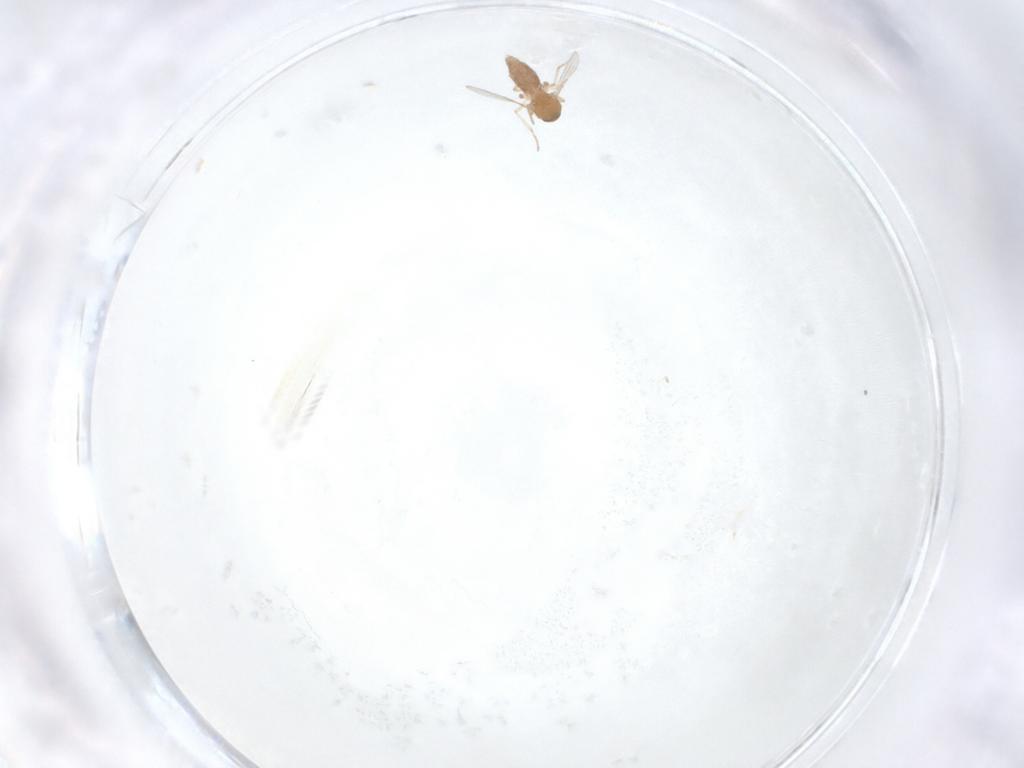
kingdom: Animalia
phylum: Arthropoda
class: Insecta
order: Diptera
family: Ceratopogonidae
